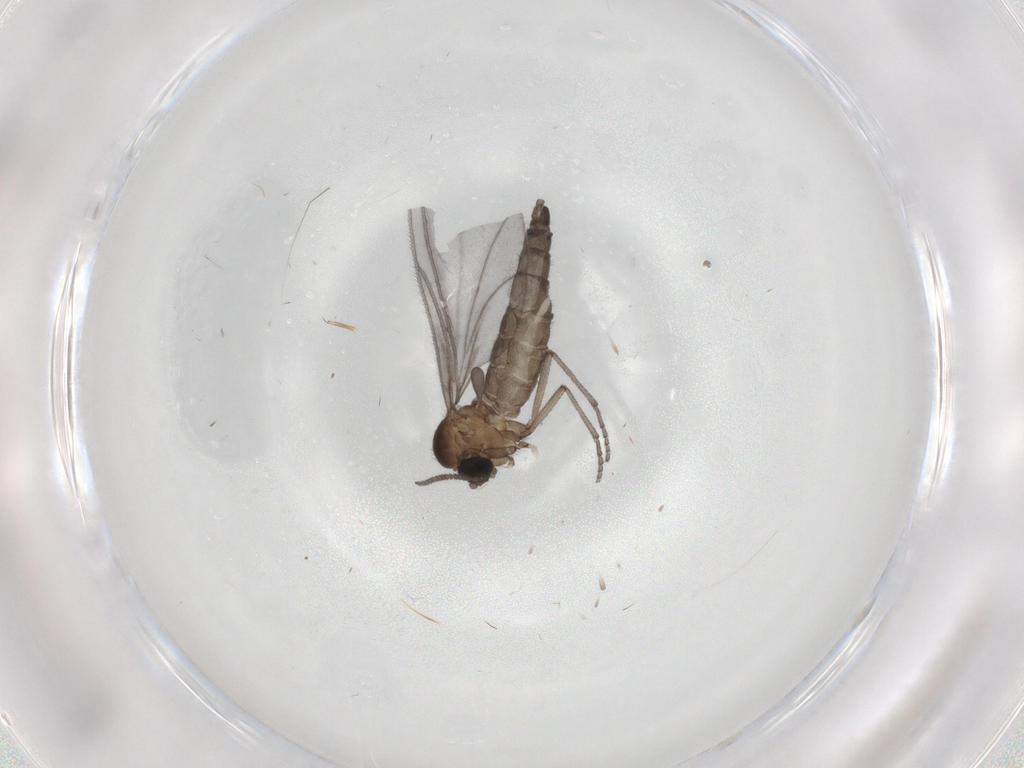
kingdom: Animalia
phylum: Arthropoda
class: Insecta
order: Diptera
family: Sciaridae
